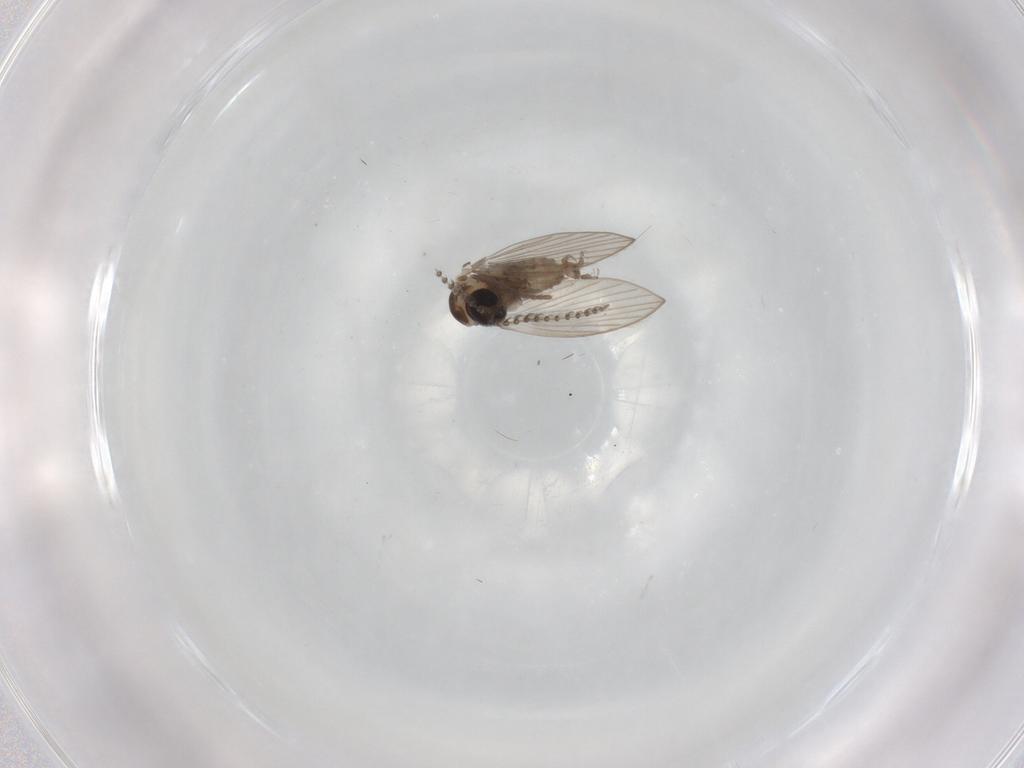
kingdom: Animalia
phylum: Arthropoda
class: Insecta
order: Diptera
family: Psychodidae
